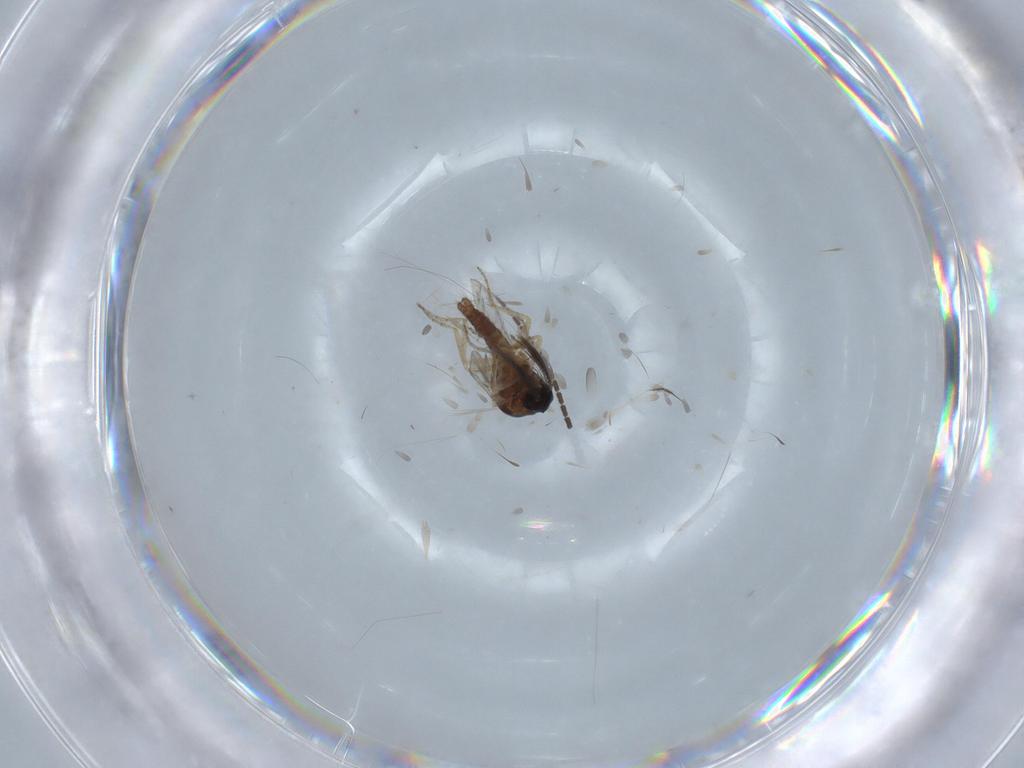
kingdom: Animalia
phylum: Arthropoda
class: Insecta
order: Diptera
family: Ceratopogonidae
